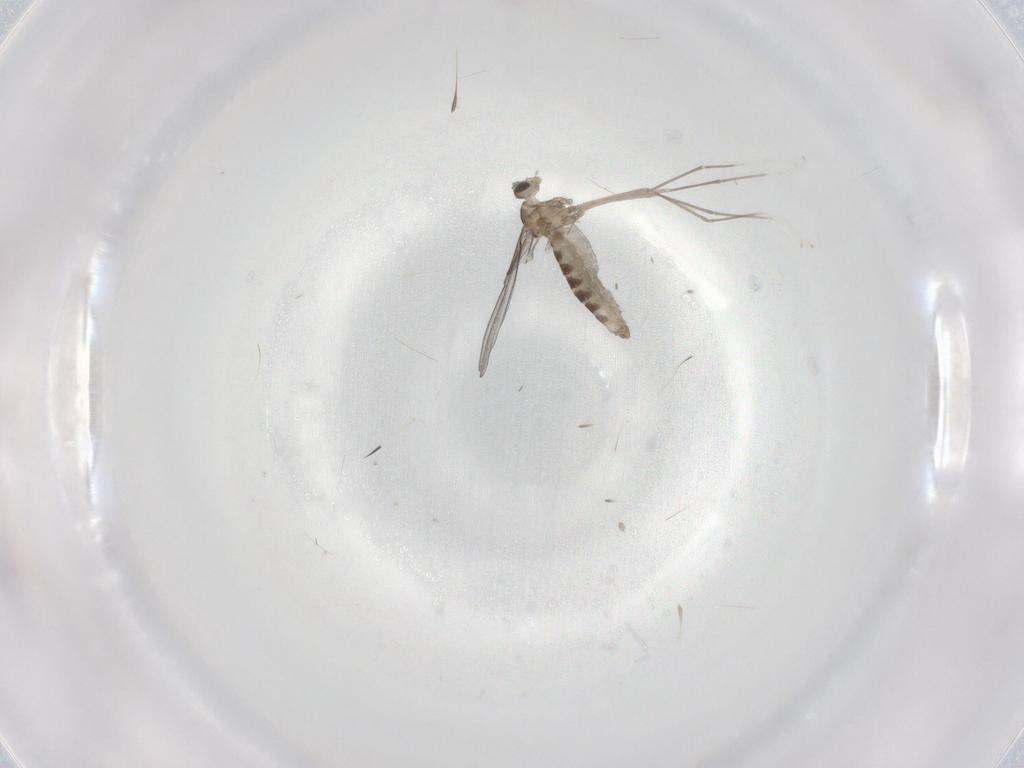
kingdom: Animalia
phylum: Arthropoda
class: Insecta
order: Diptera
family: Cecidomyiidae
